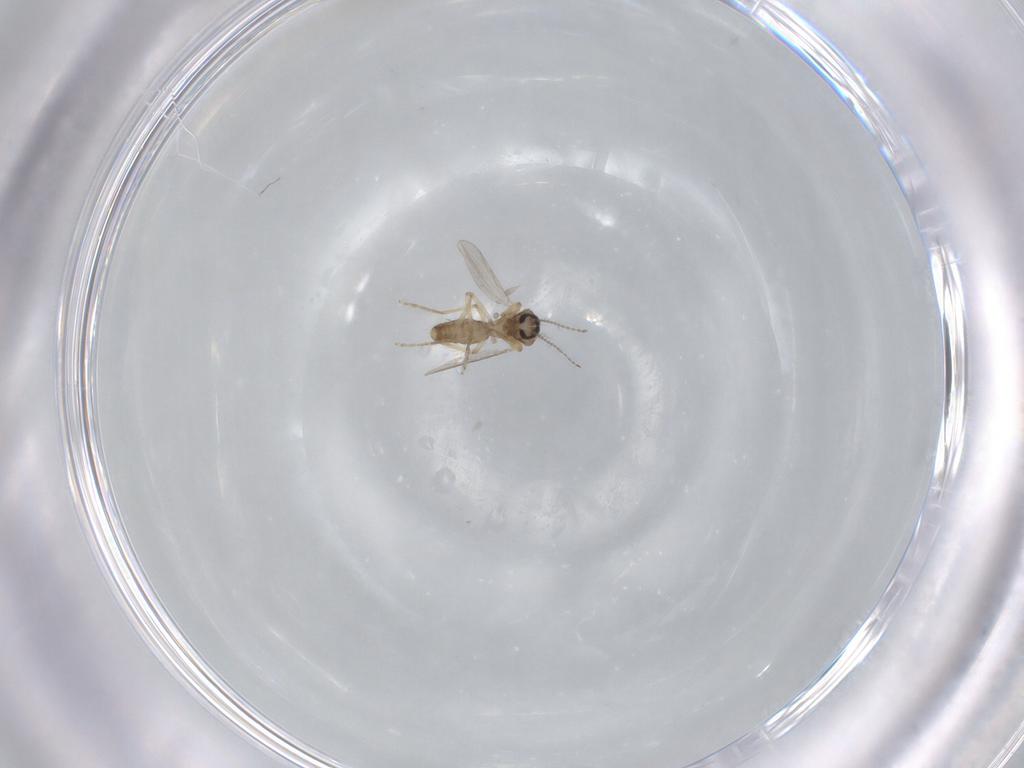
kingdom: Animalia
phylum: Arthropoda
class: Insecta
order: Diptera
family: Ceratopogonidae
